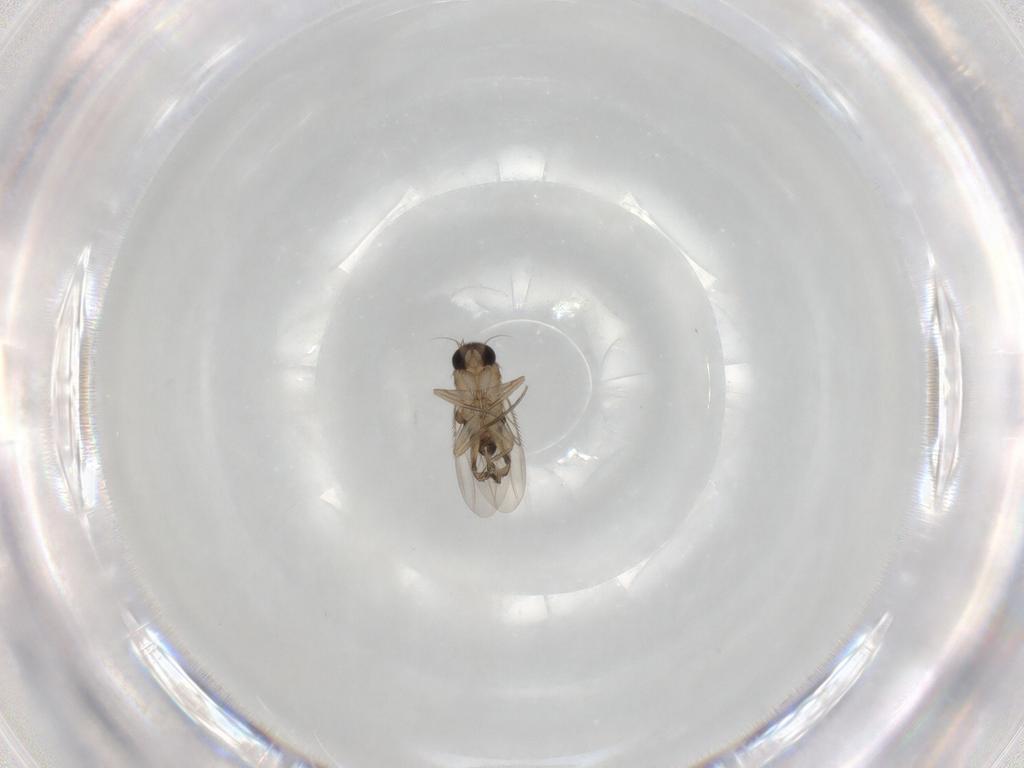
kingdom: Animalia
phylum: Arthropoda
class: Insecta
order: Diptera
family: Phoridae
